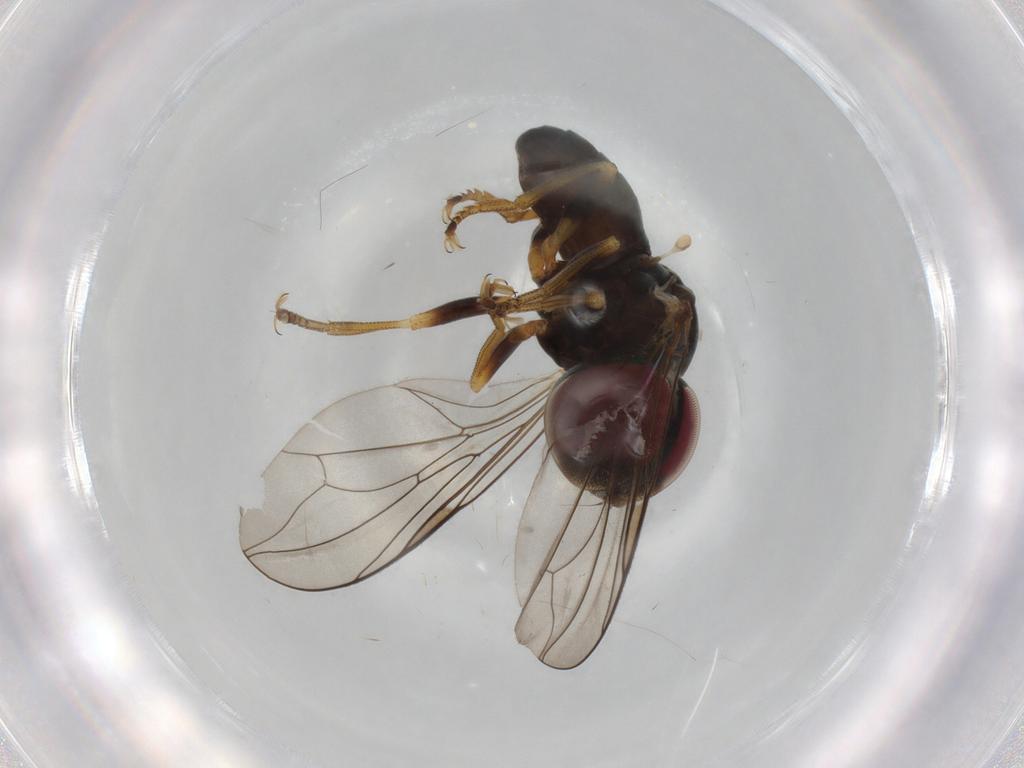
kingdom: Animalia
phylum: Arthropoda
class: Insecta
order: Diptera
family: Pipunculidae
